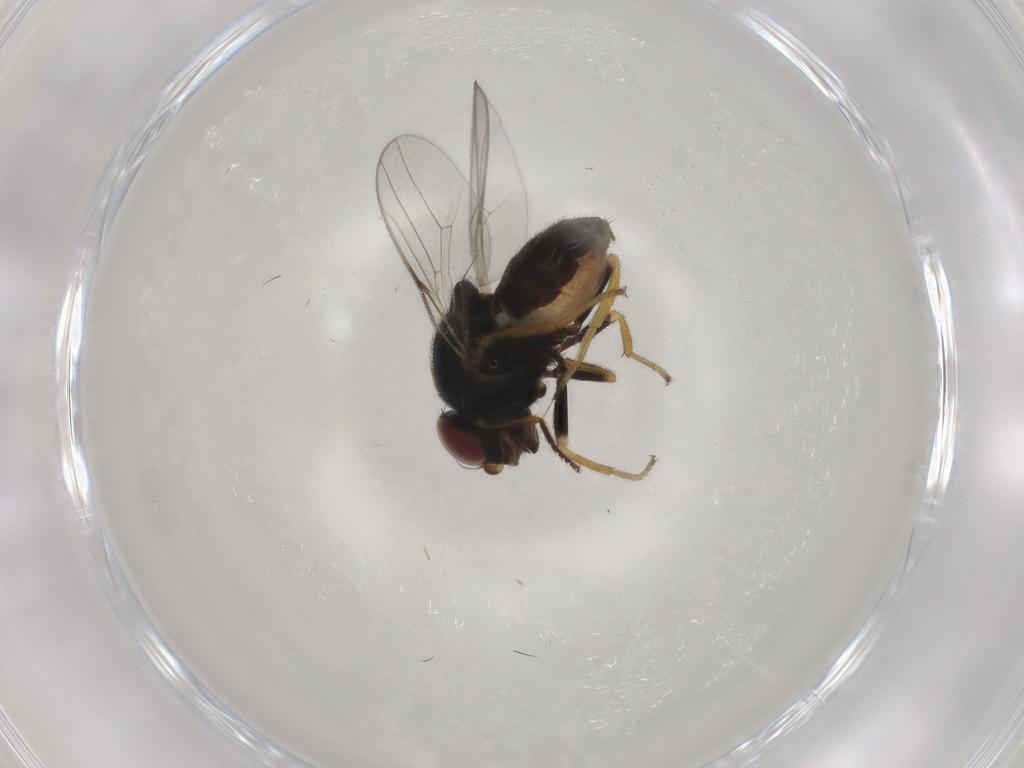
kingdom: Animalia
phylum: Arthropoda
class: Insecta
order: Diptera
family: Chloropidae
